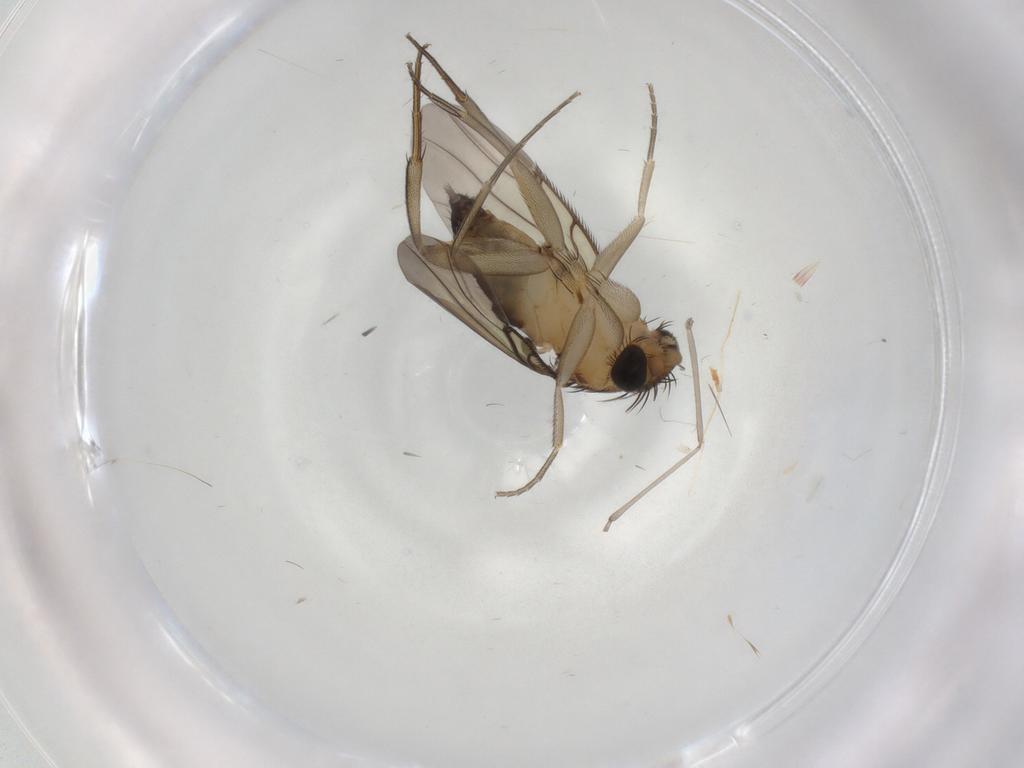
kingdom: Animalia
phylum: Arthropoda
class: Insecta
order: Diptera
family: Phoridae
